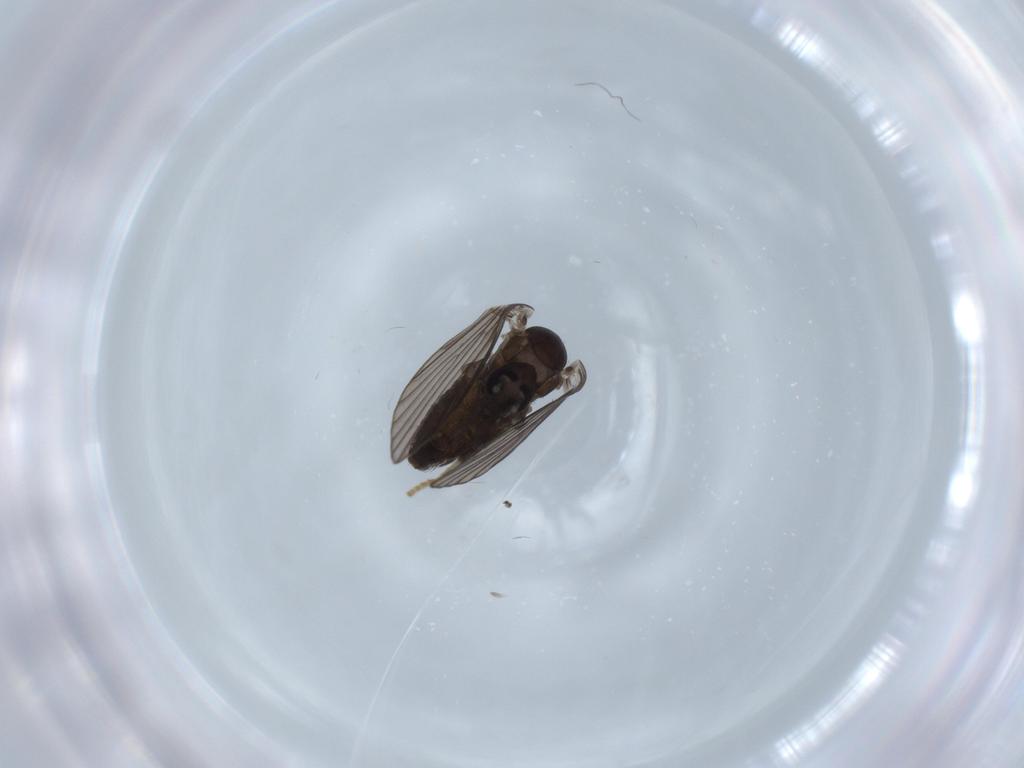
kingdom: Animalia
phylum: Arthropoda
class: Insecta
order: Diptera
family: Psychodidae
